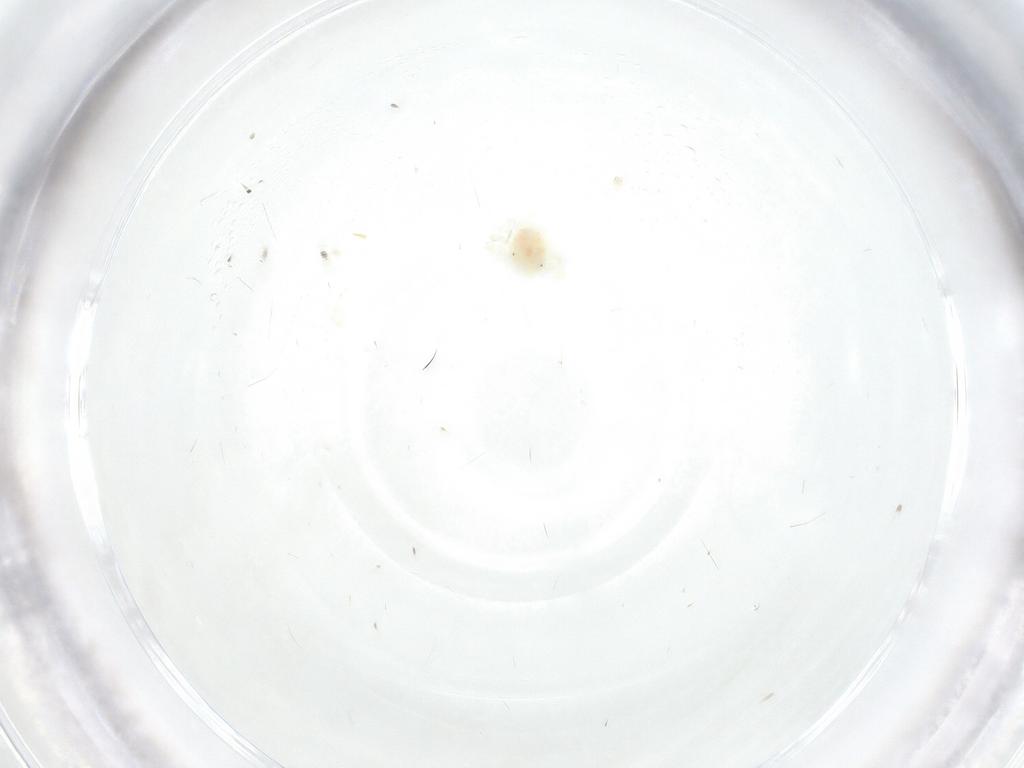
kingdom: Animalia
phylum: Arthropoda
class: Arachnida
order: Trombidiformes
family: Anystidae
